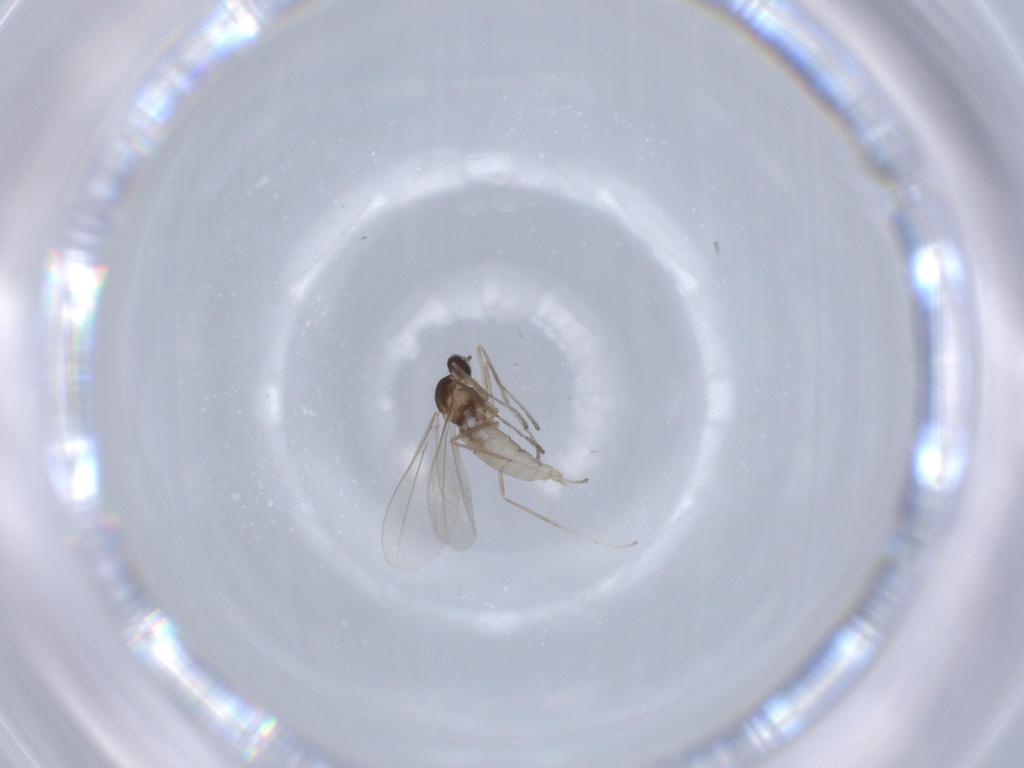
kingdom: Animalia
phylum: Arthropoda
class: Insecta
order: Diptera
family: Cecidomyiidae
